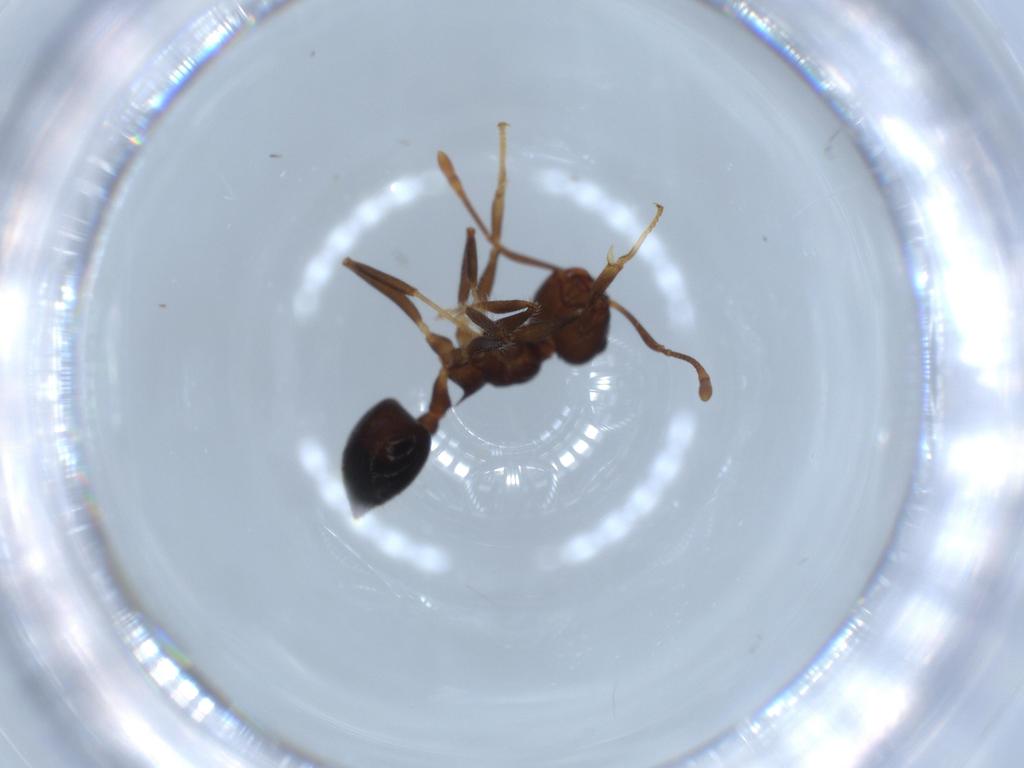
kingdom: Animalia
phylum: Arthropoda
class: Insecta
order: Hymenoptera
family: Formicidae
